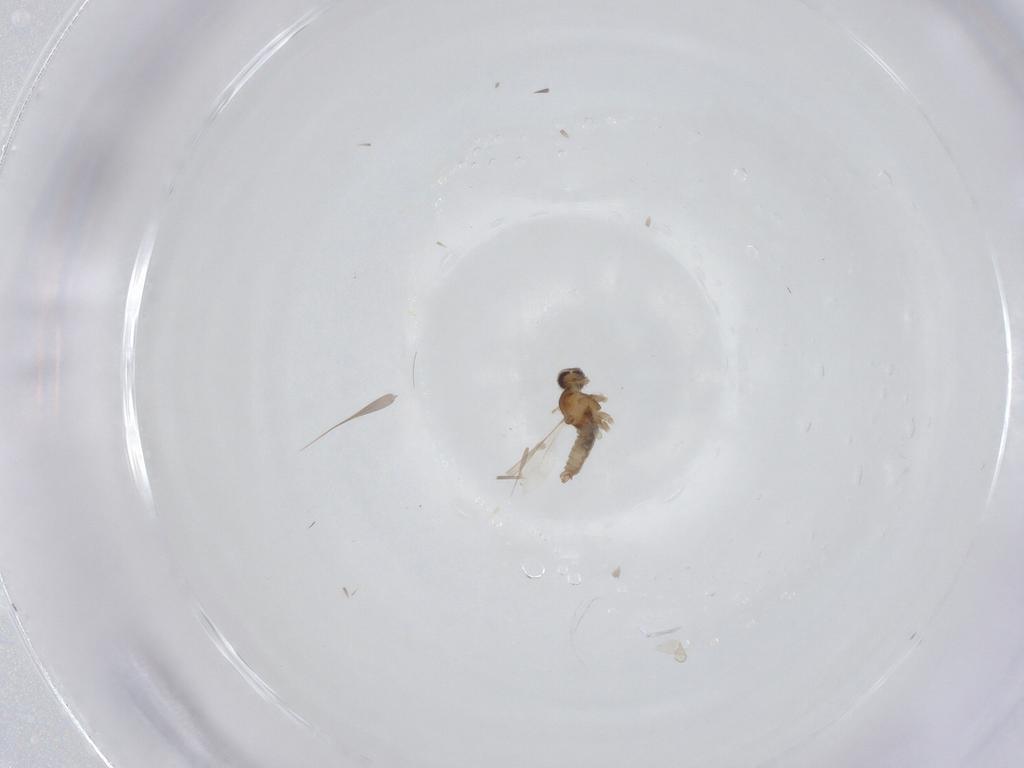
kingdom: Animalia
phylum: Arthropoda
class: Insecta
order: Diptera
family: Cecidomyiidae
